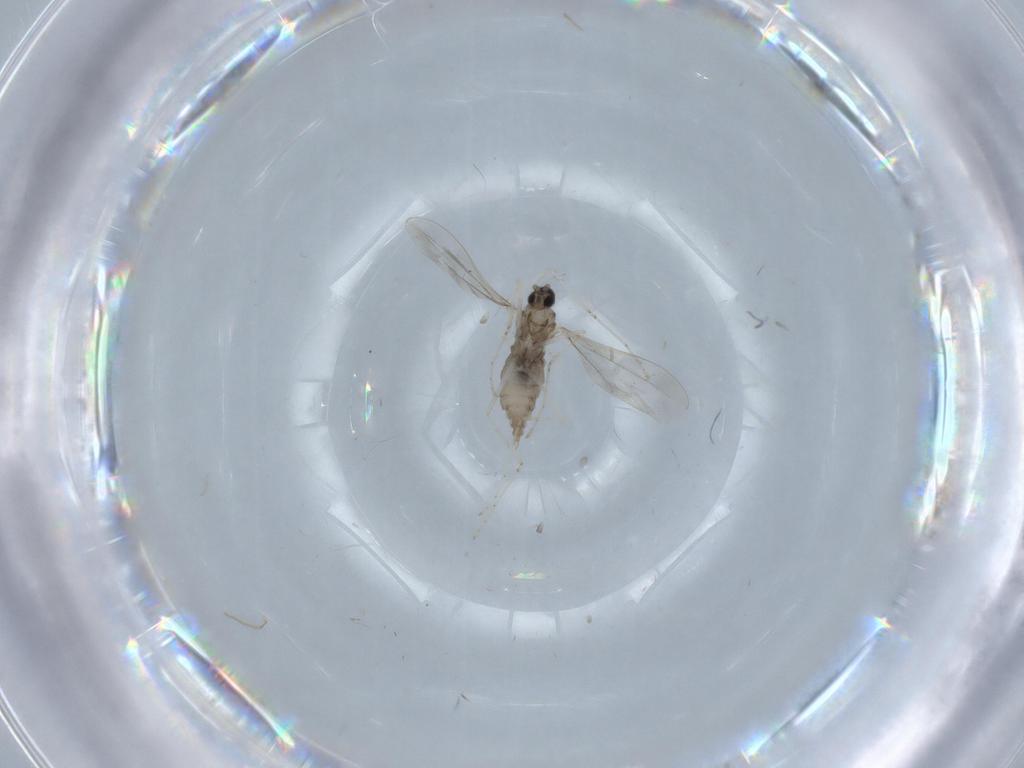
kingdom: Animalia
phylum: Arthropoda
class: Insecta
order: Diptera
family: Cecidomyiidae
